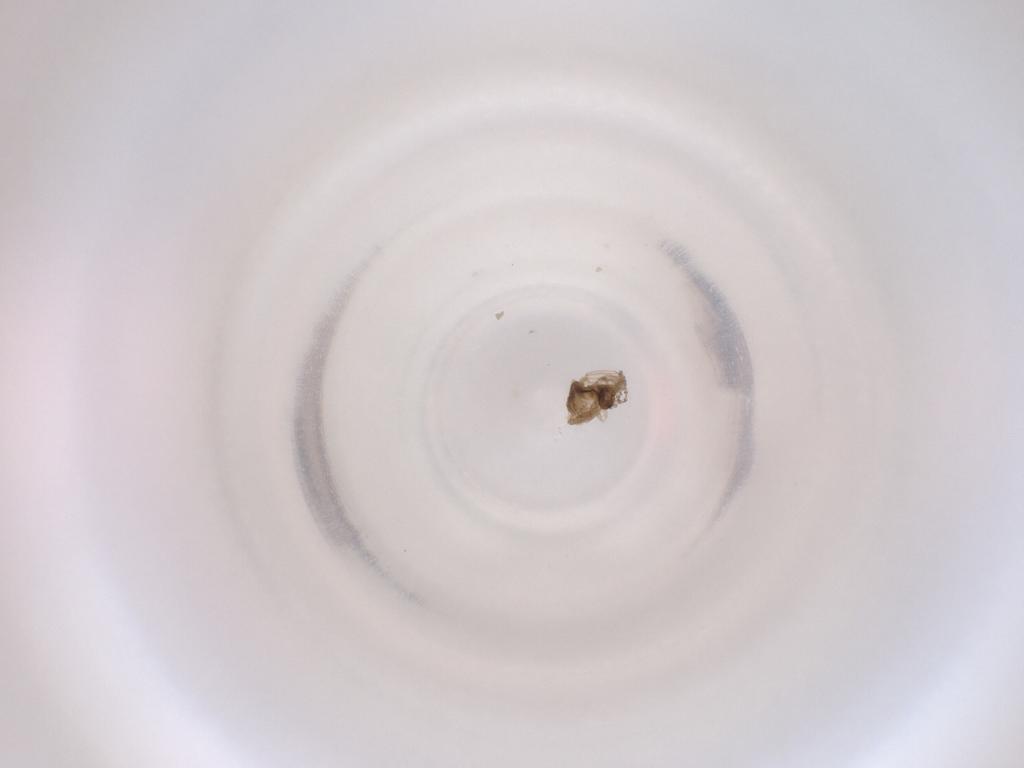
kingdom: Animalia
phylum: Arthropoda
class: Insecta
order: Diptera
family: Cecidomyiidae
